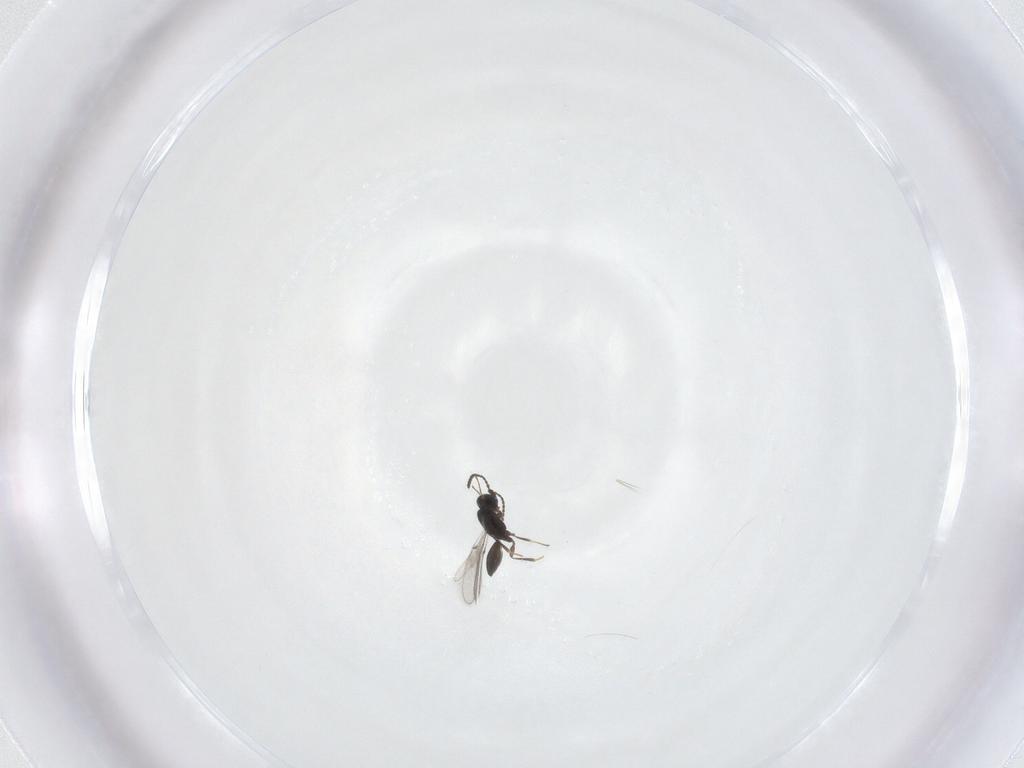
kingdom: Animalia
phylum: Arthropoda
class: Insecta
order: Hymenoptera
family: Scelionidae
